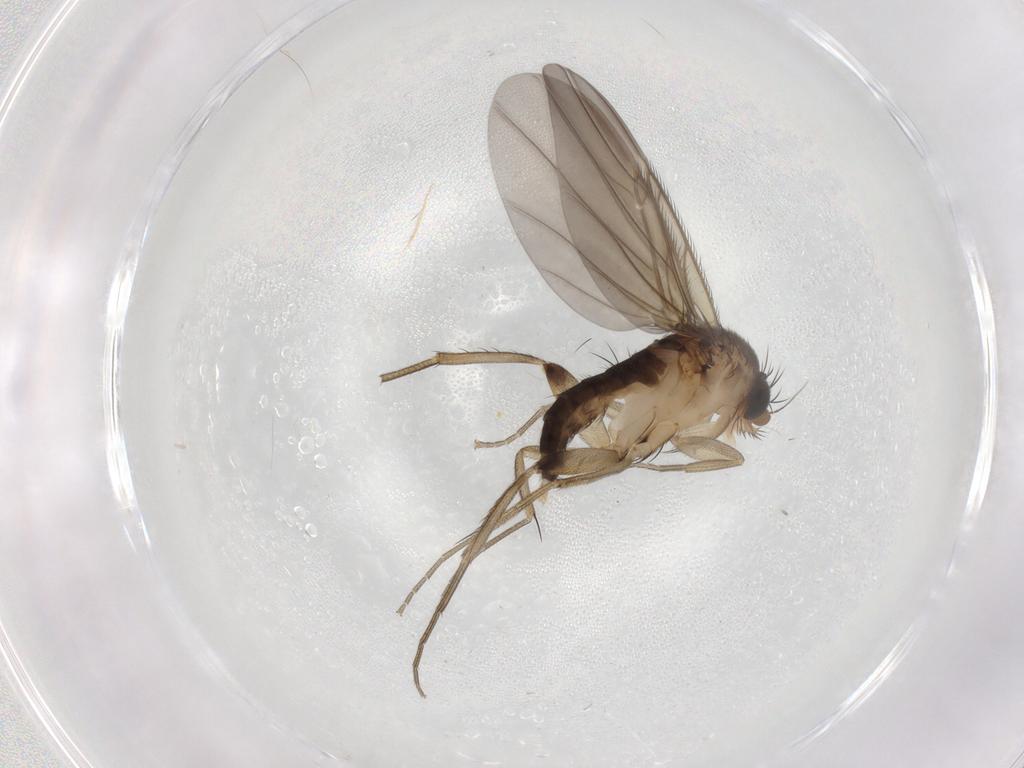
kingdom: Animalia
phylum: Arthropoda
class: Insecta
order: Diptera
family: Phoridae
